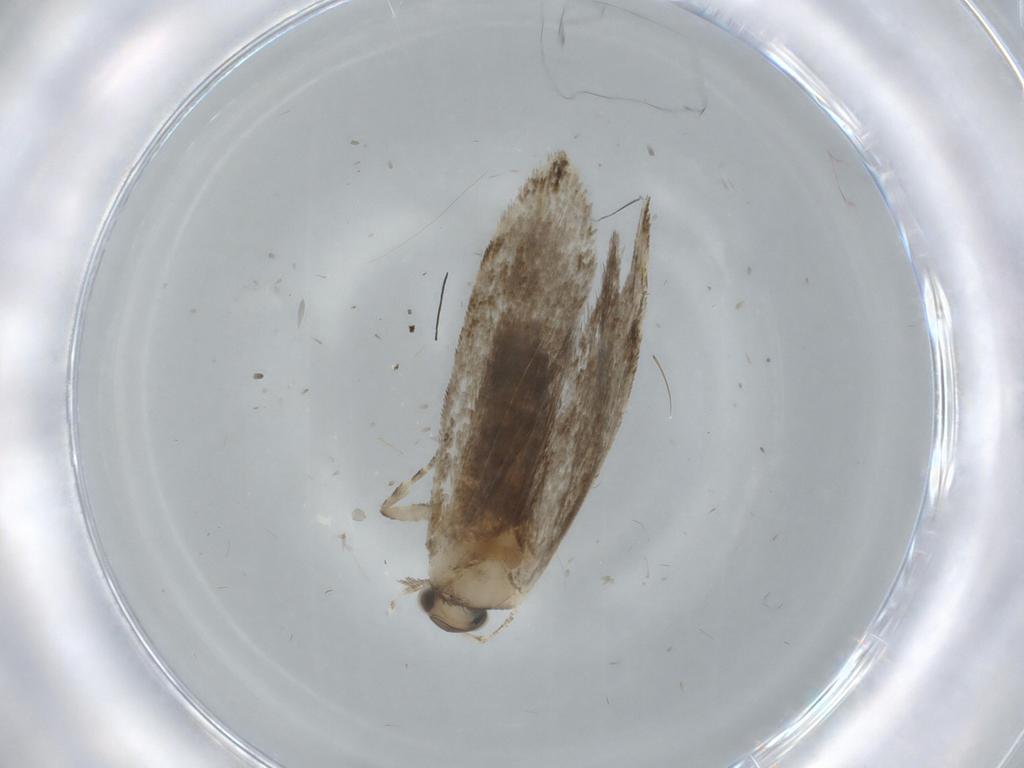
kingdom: Animalia
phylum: Arthropoda
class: Insecta
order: Lepidoptera
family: Tineidae
